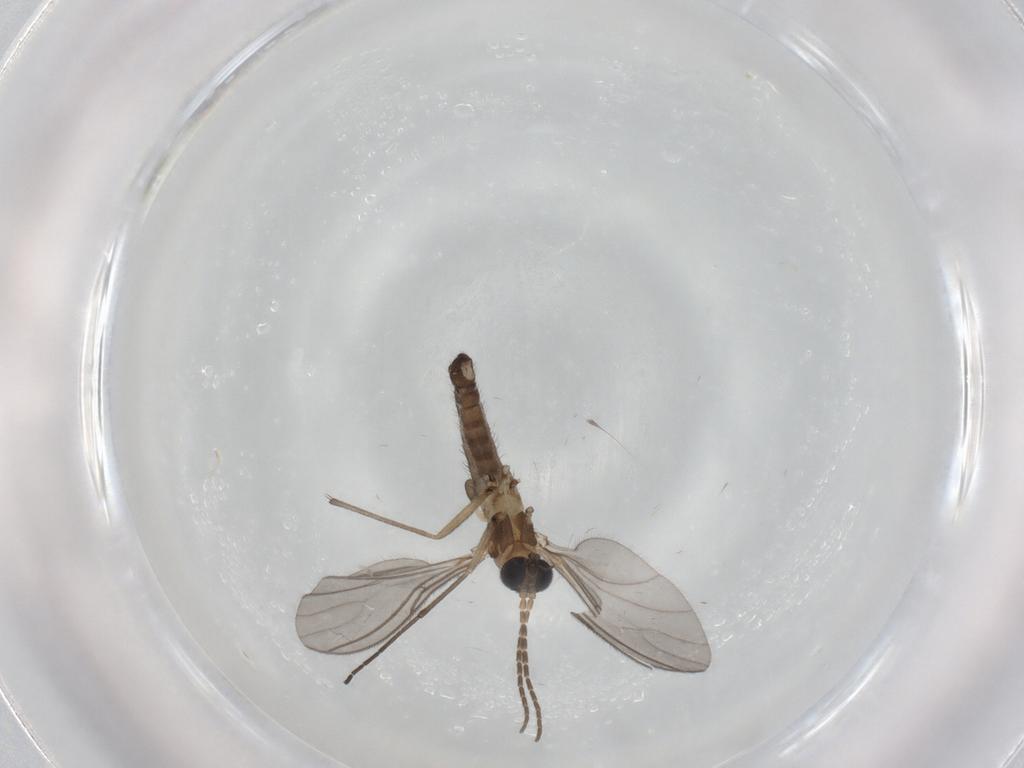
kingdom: Animalia
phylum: Arthropoda
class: Insecta
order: Diptera
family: Sciaridae
